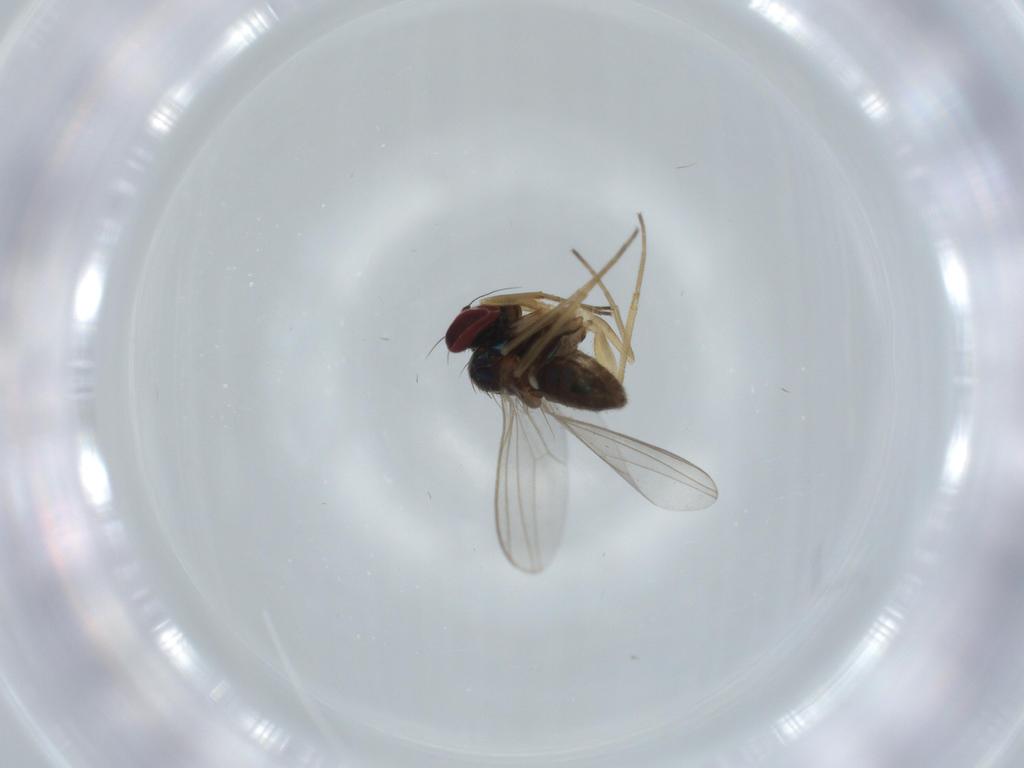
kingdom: Animalia
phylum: Arthropoda
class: Insecta
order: Diptera
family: Dolichopodidae
